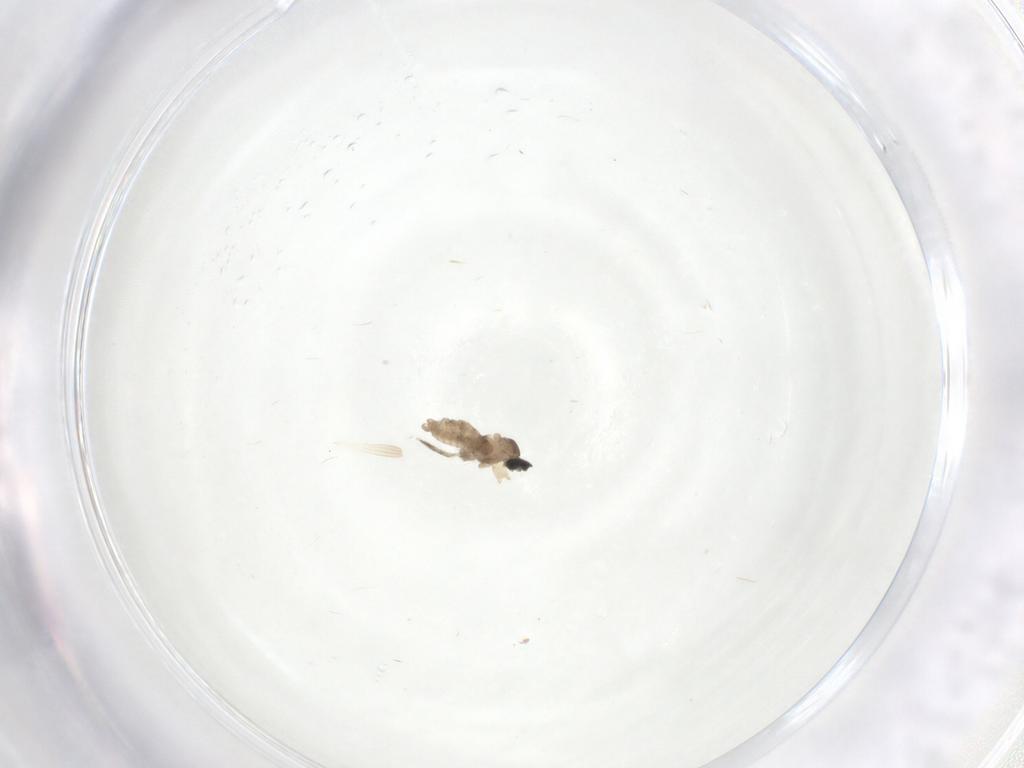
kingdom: Animalia
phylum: Arthropoda
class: Insecta
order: Diptera
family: Cecidomyiidae
